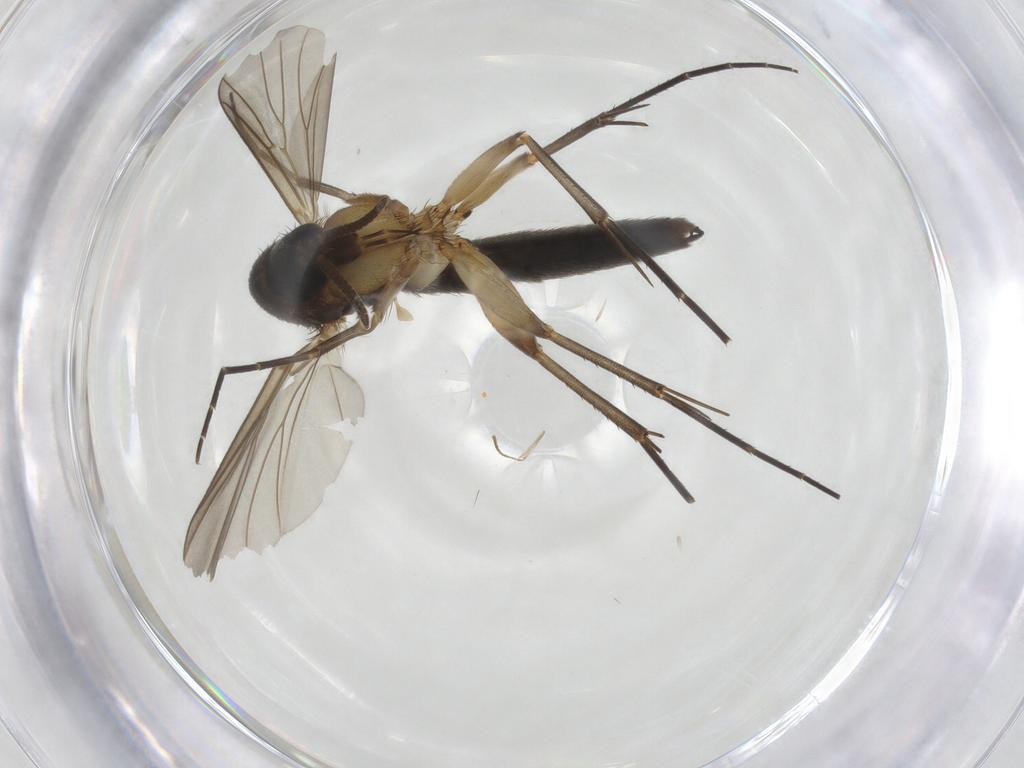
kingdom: Animalia
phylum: Arthropoda
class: Insecta
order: Diptera
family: Mycetophilidae
